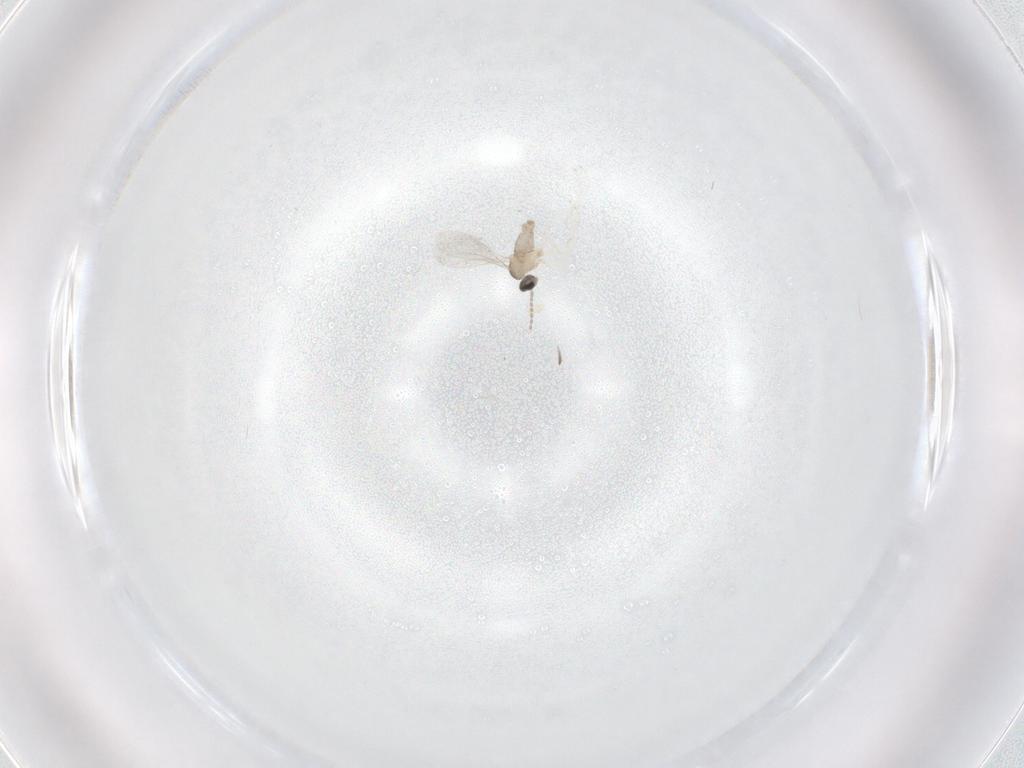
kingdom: Animalia
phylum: Arthropoda
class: Insecta
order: Diptera
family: Cecidomyiidae
